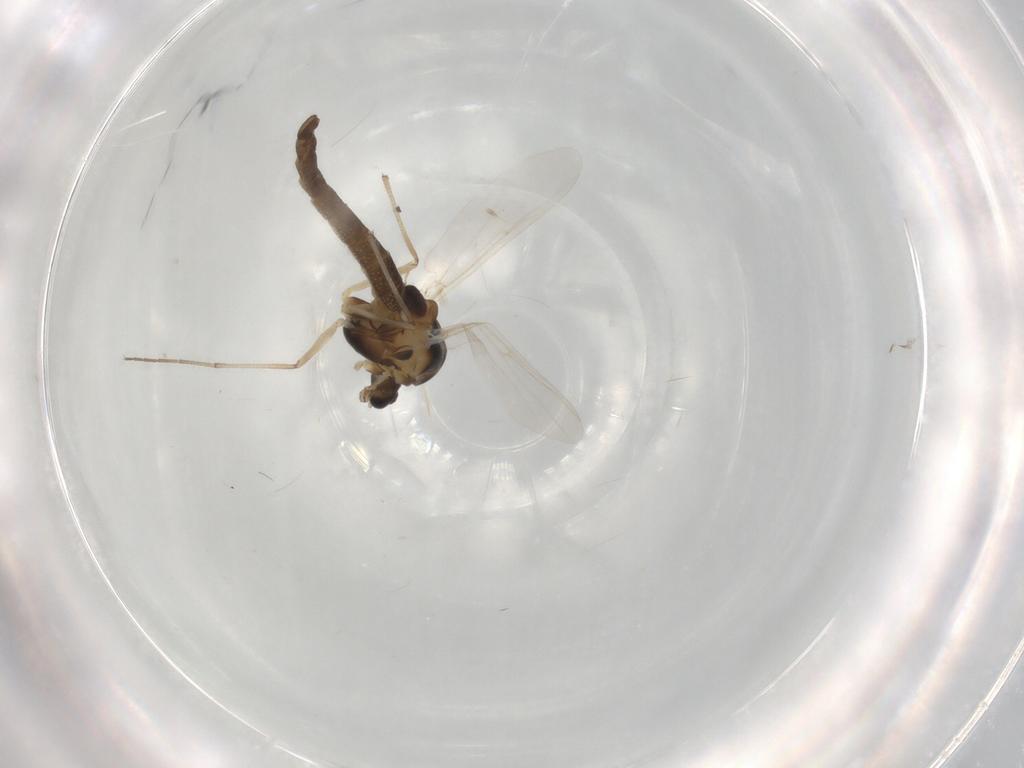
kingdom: Animalia
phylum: Arthropoda
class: Insecta
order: Diptera
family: Phoridae
